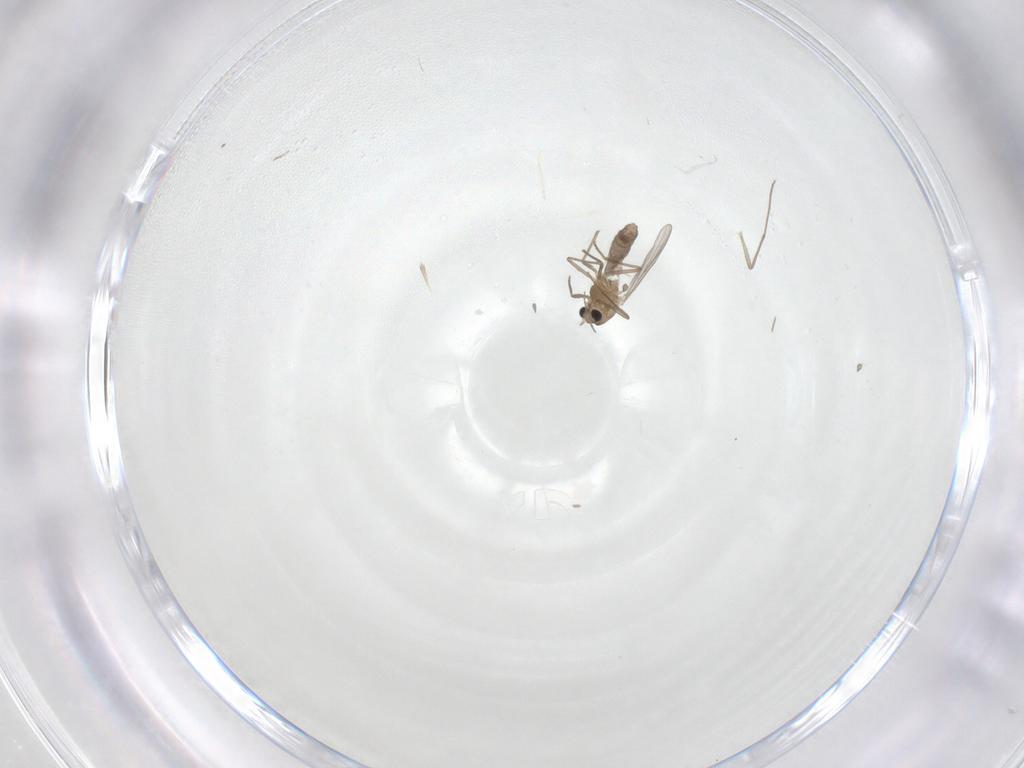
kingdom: Animalia
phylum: Arthropoda
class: Insecta
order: Diptera
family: Chironomidae
